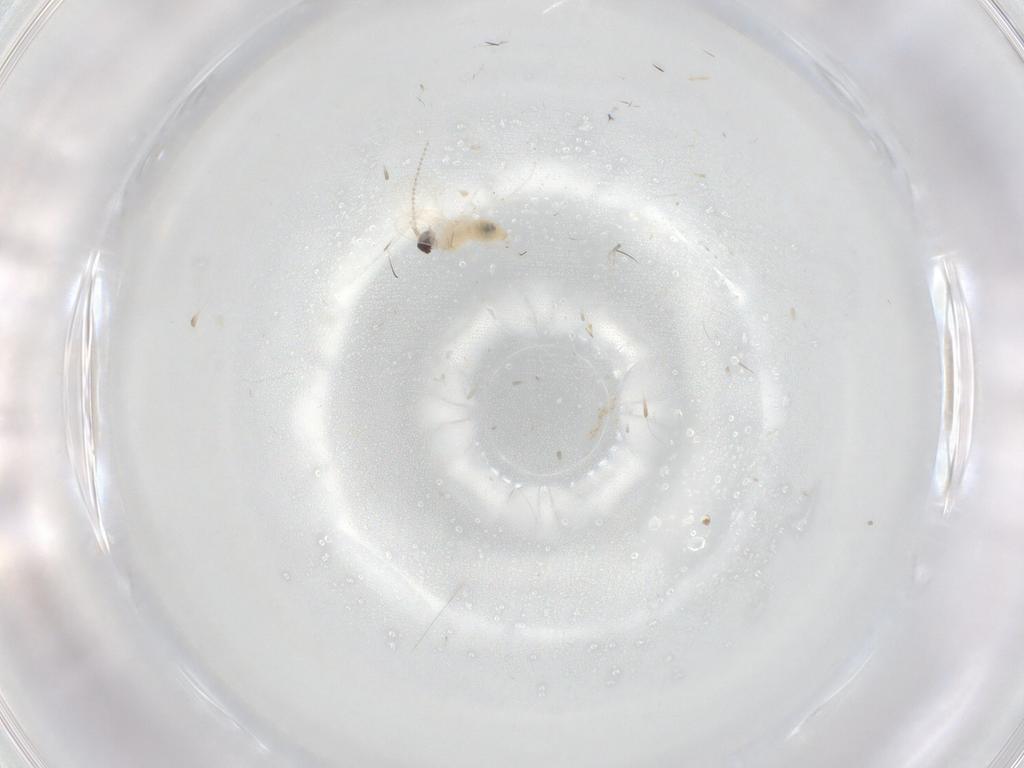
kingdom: Animalia
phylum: Arthropoda
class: Insecta
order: Diptera
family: Cecidomyiidae
